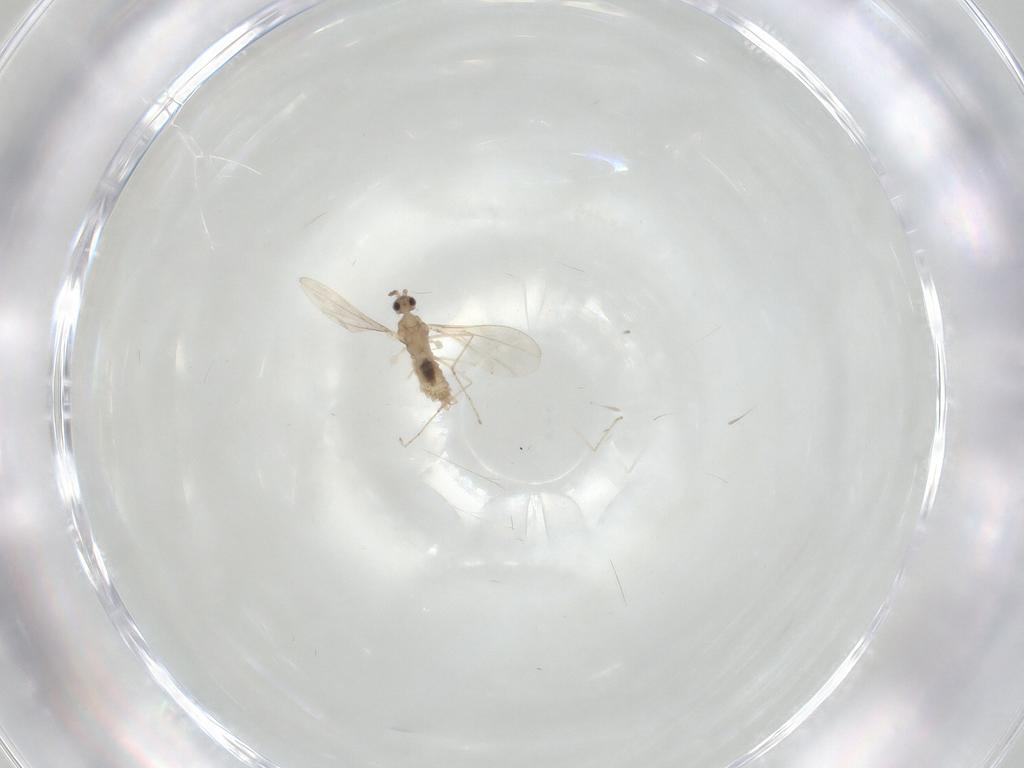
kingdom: Animalia
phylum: Arthropoda
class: Insecta
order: Diptera
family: Cecidomyiidae
